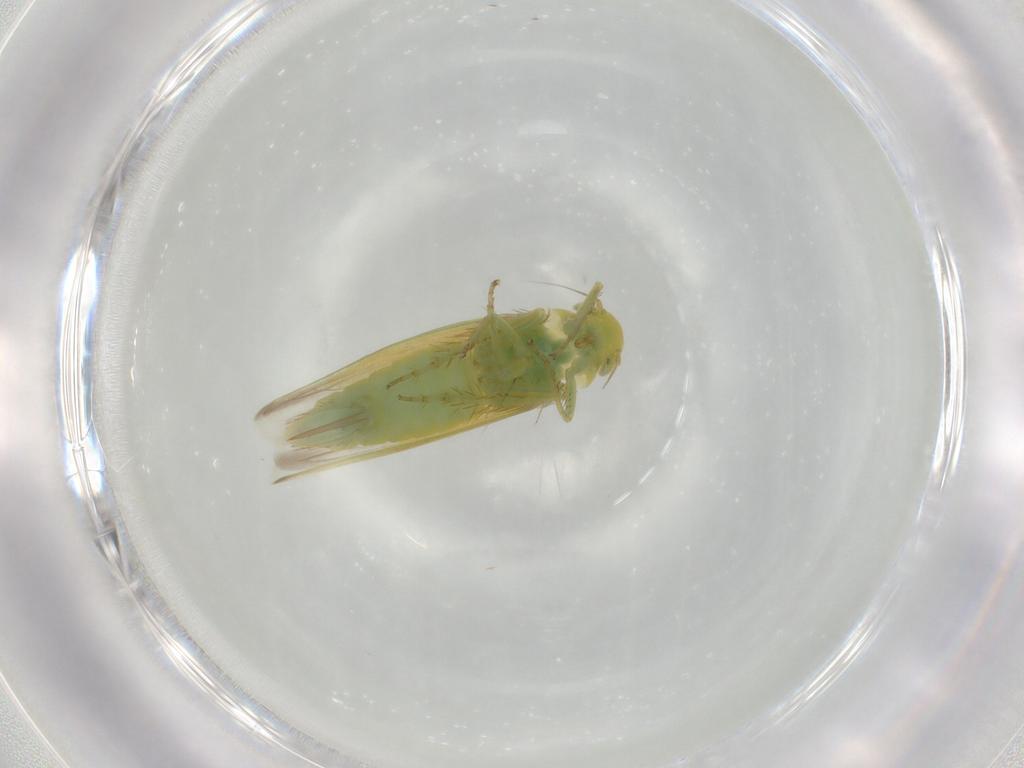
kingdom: Animalia
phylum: Arthropoda
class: Insecta
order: Hemiptera
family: Cicadellidae
